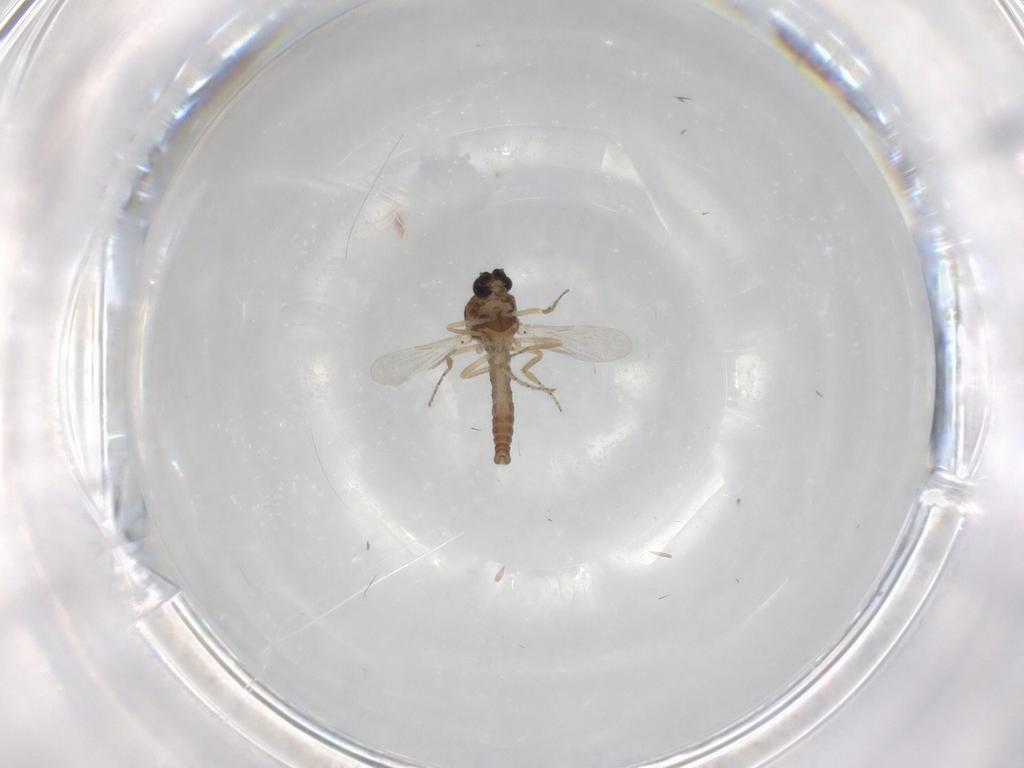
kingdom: Animalia
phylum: Arthropoda
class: Insecta
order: Diptera
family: Ceratopogonidae
